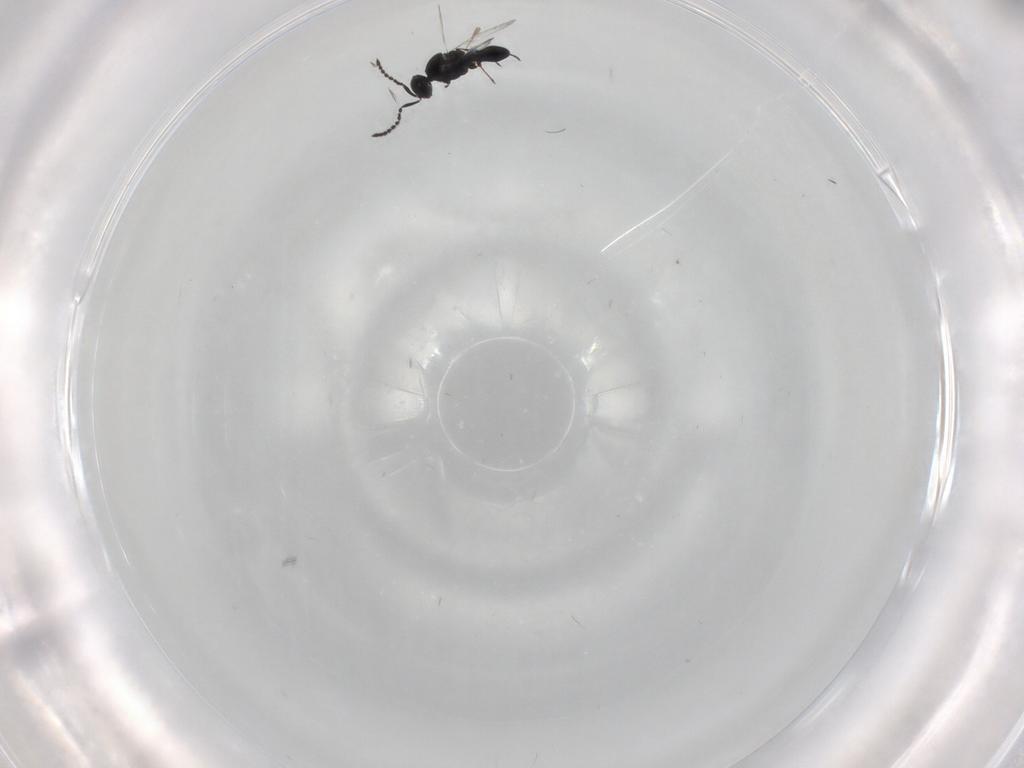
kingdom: Animalia
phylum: Arthropoda
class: Insecta
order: Hymenoptera
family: Platygastridae
